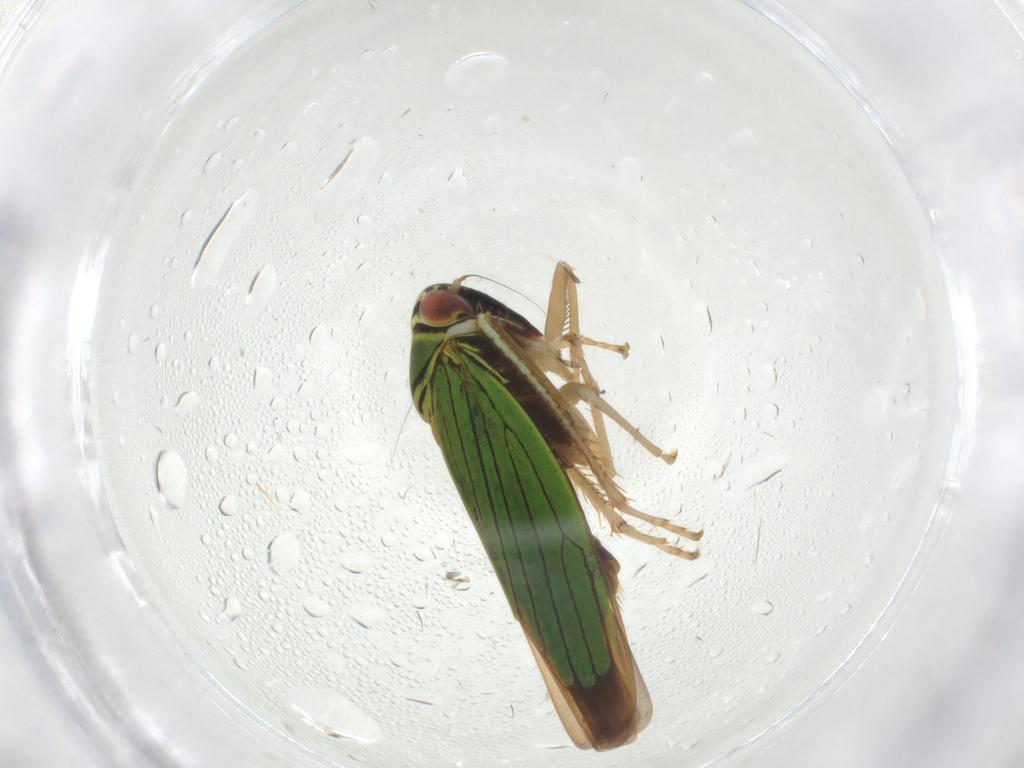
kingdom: Animalia
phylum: Arthropoda
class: Insecta
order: Hemiptera
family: Cicadellidae
